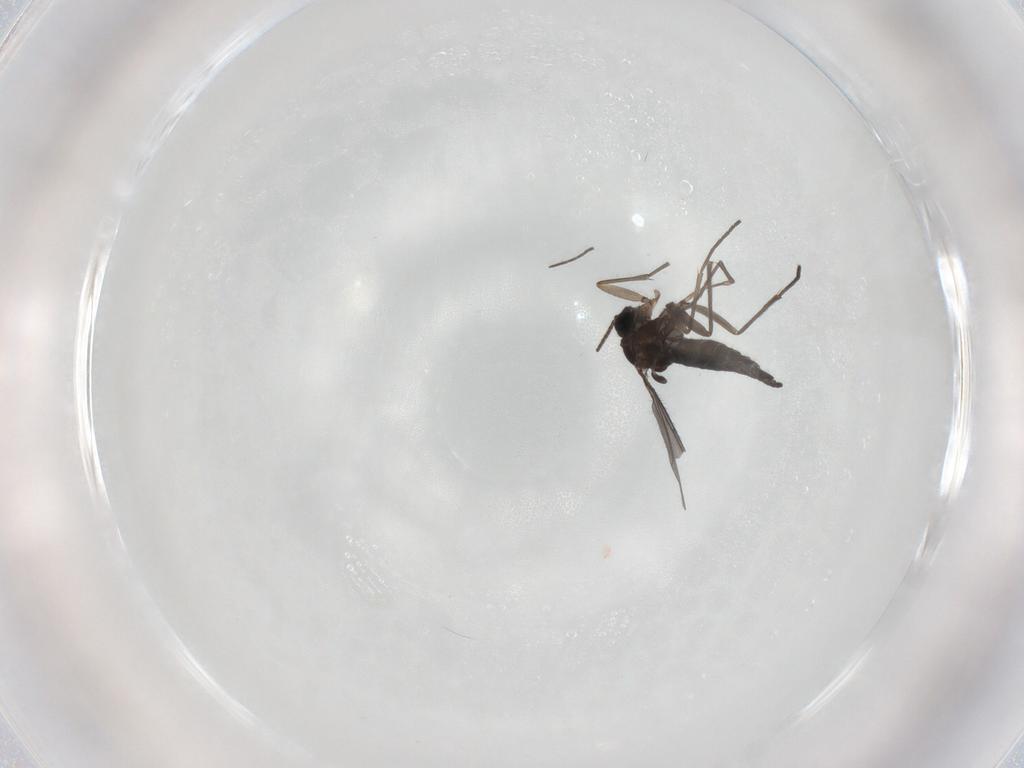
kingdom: Animalia
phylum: Arthropoda
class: Insecta
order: Diptera
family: Sciaridae
